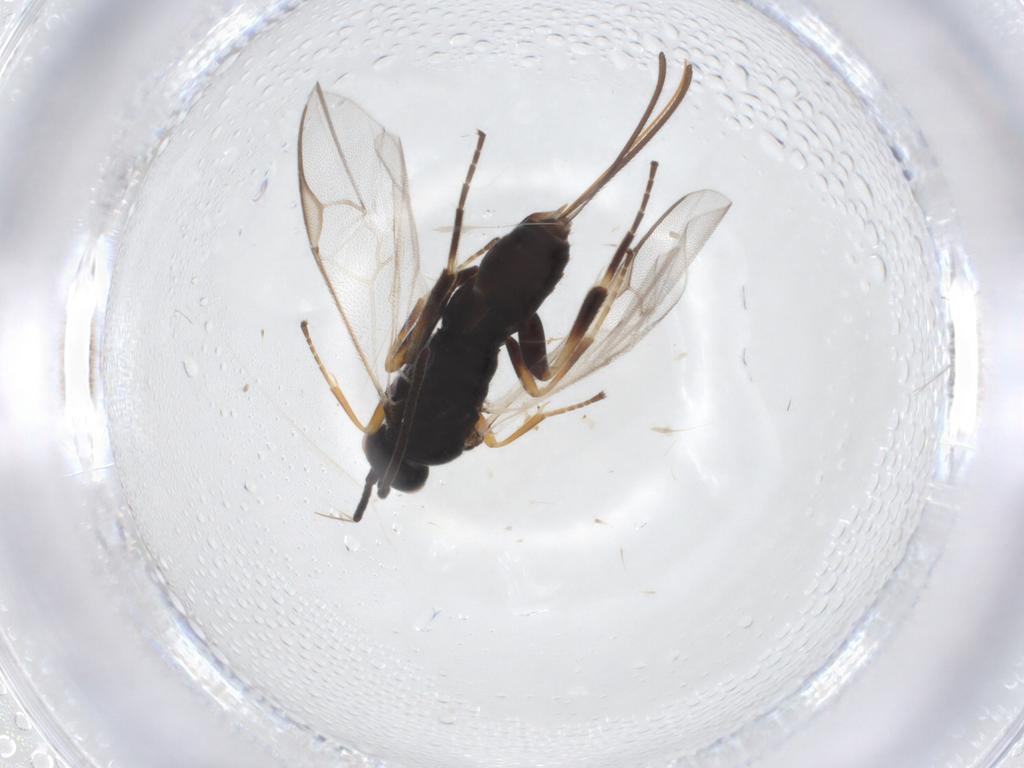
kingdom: Animalia
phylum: Arthropoda
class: Insecta
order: Hymenoptera
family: Braconidae
